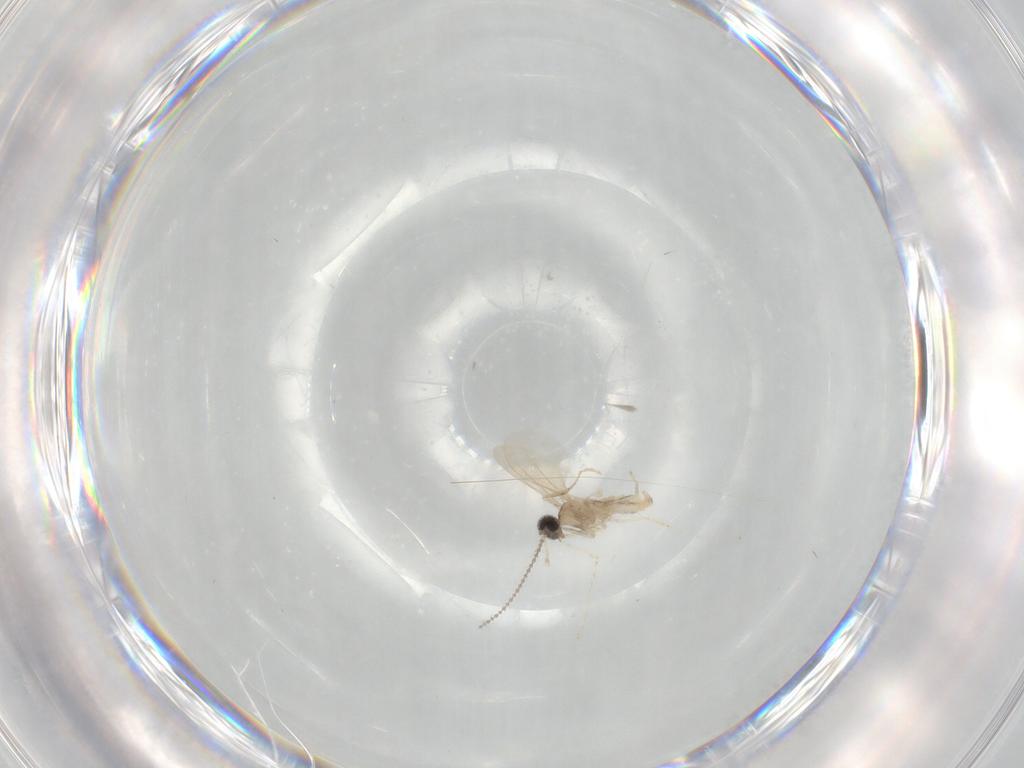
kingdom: Animalia
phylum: Arthropoda
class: Insecta
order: Diptera
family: Cecidomyiidae
